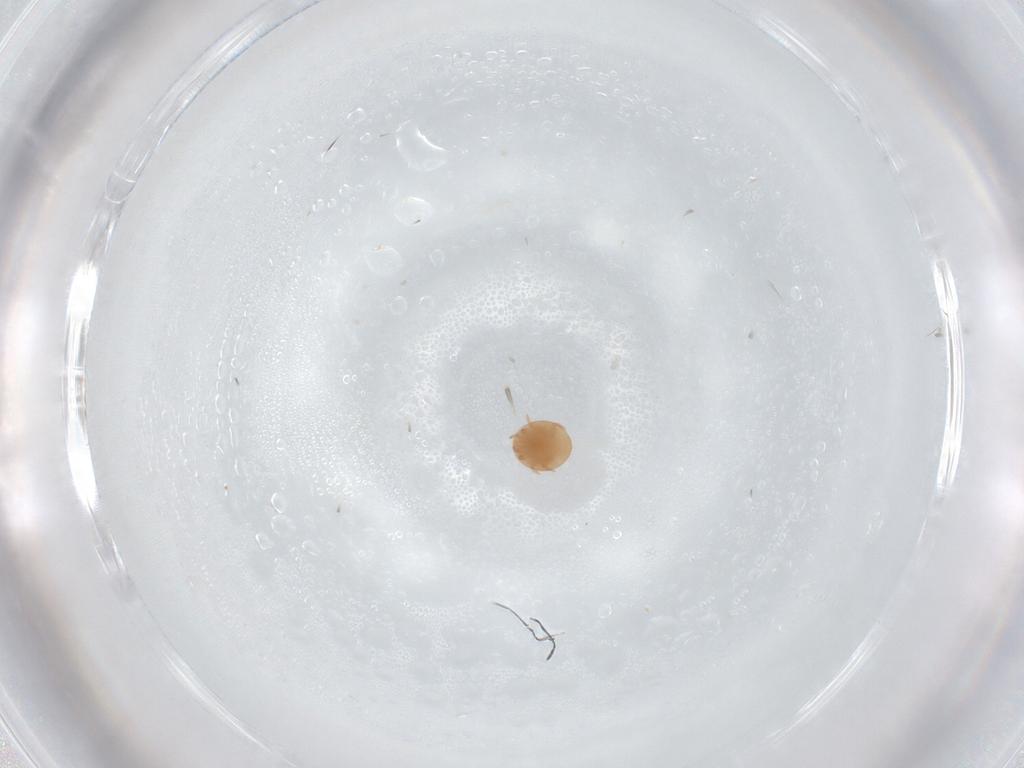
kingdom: Animalia
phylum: Arthropoda
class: Arachnida
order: Mesostigmata
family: Trematuridae
